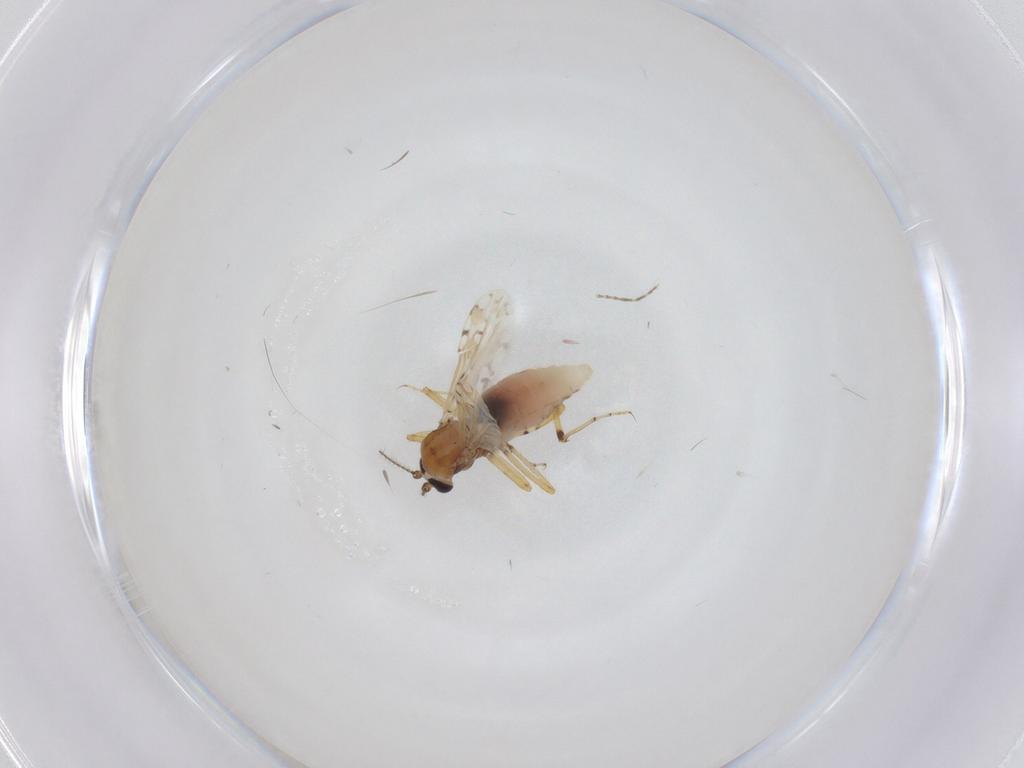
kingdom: Animalia
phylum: Arthropoda
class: Insecta
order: Diptera
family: Ceratopogonidae
